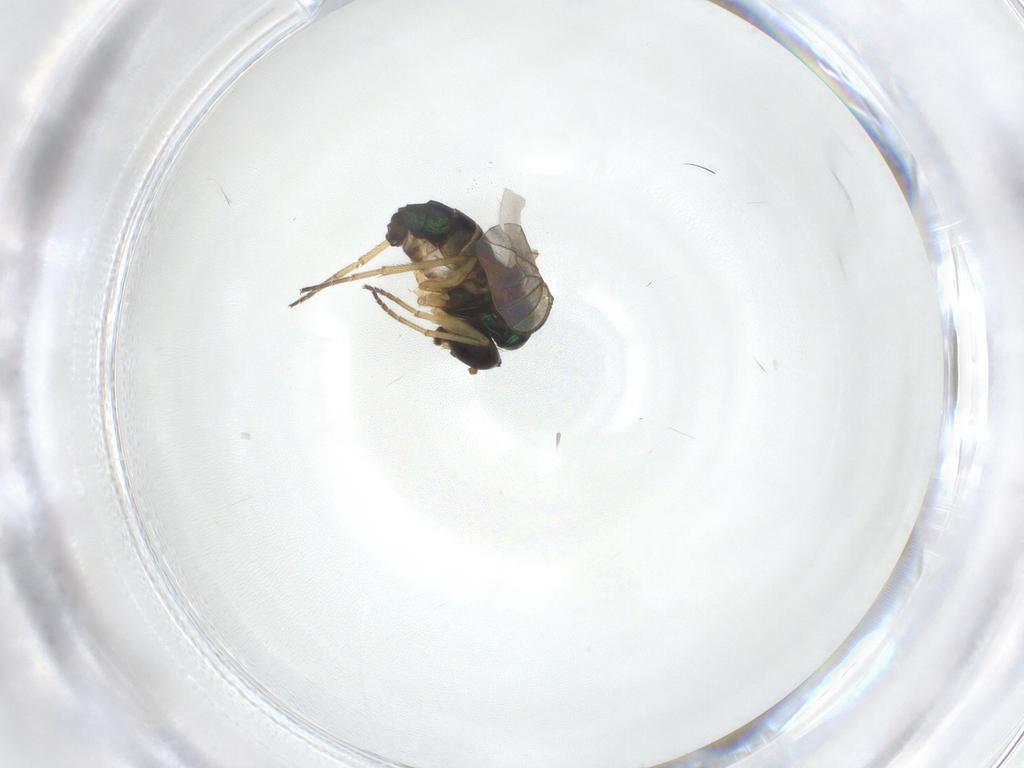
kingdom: Animalia
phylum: Arthropoda
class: Insecta
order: Diptera
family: Dolichopodidae
